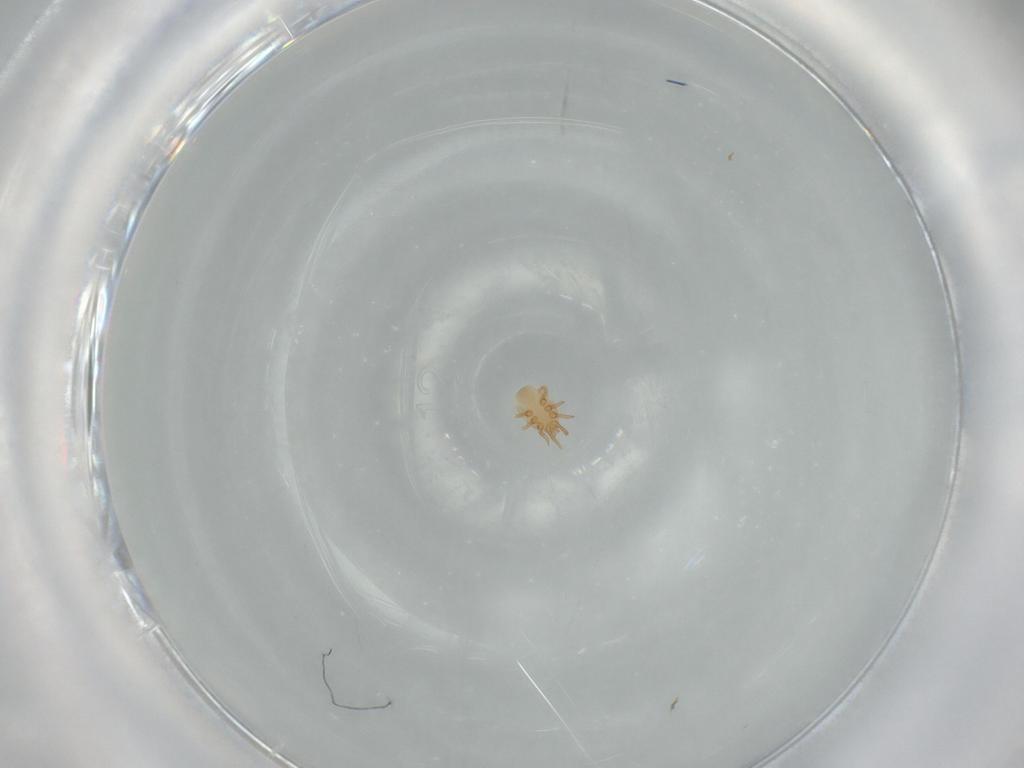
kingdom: Animalia
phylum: Arthropoda
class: Arachnida
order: Mesostigmata
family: Dinychidae
